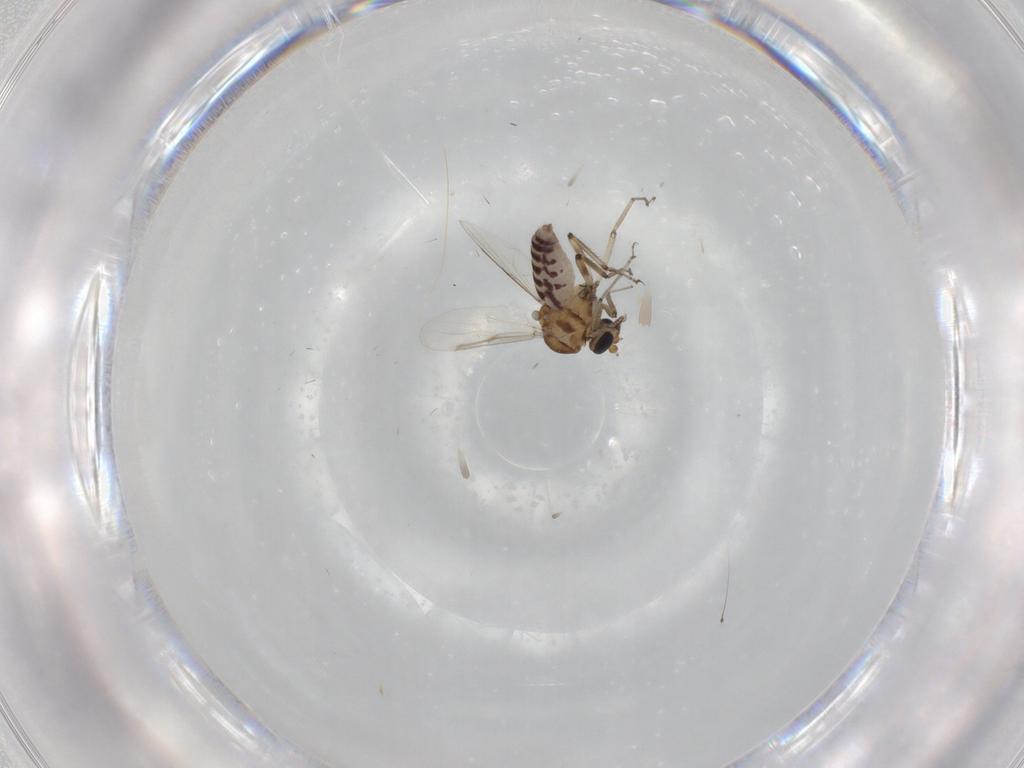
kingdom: Animalia
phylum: Arthropoda
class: Insecta
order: Diptera
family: Ceratopogonidae
